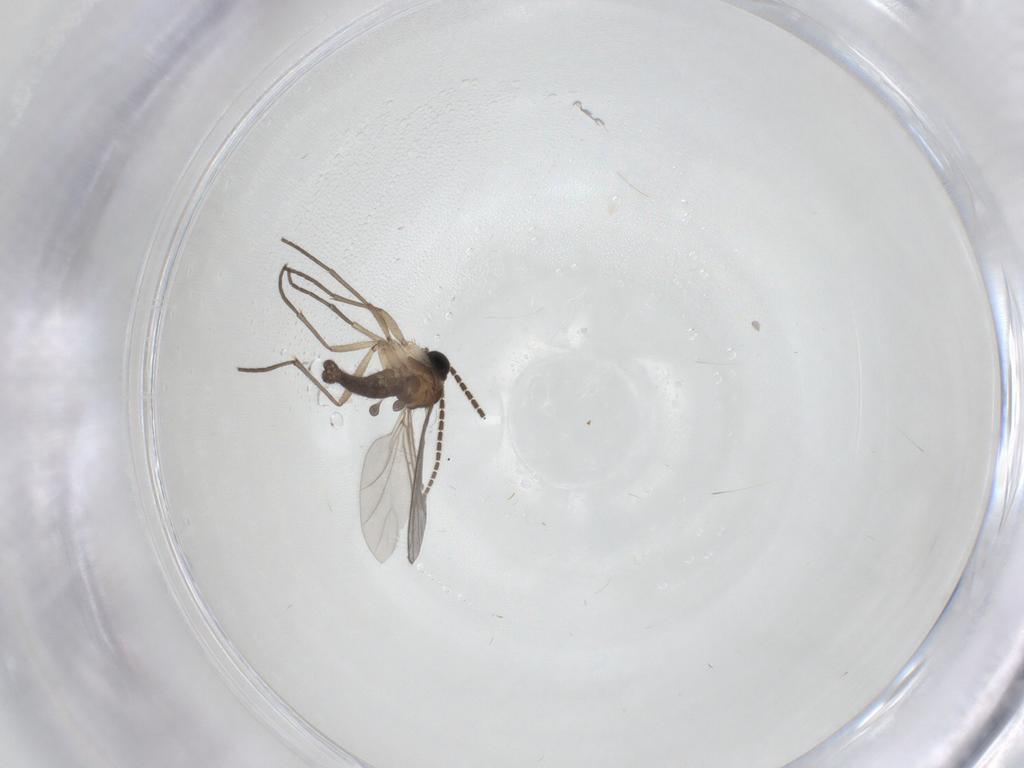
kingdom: Animalia
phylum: Arthropoda
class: Insecta
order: Diptera
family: Sciaridae
